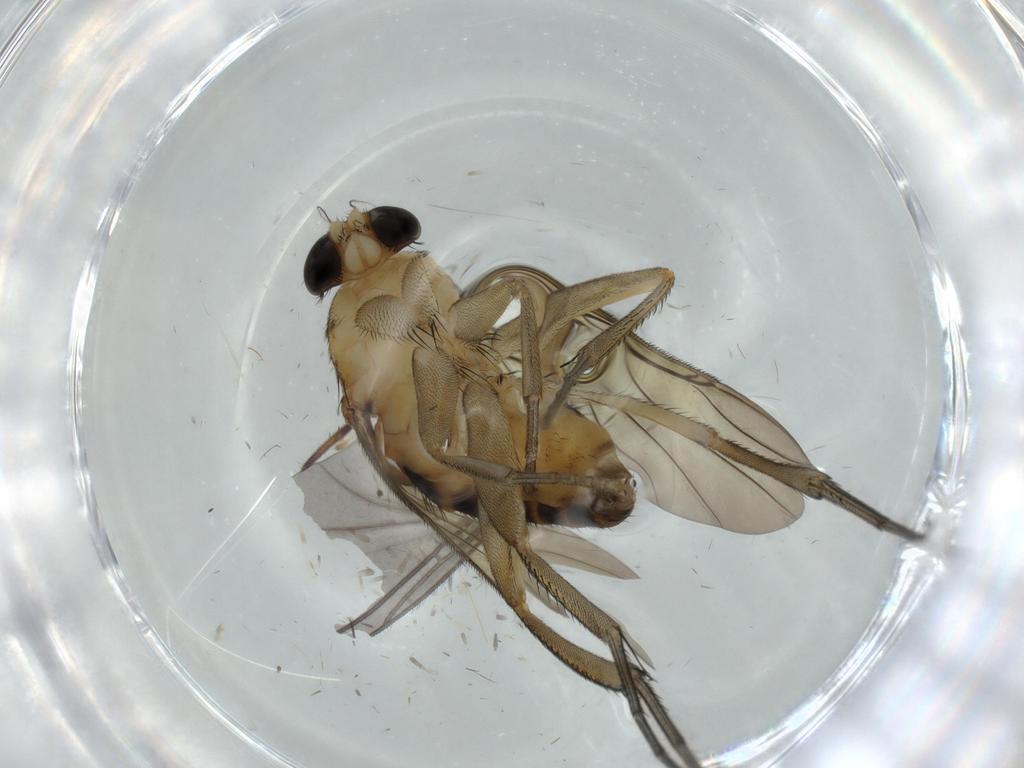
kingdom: Animalia
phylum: Arthropoda
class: Insecta
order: Diptera
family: Phoridae
